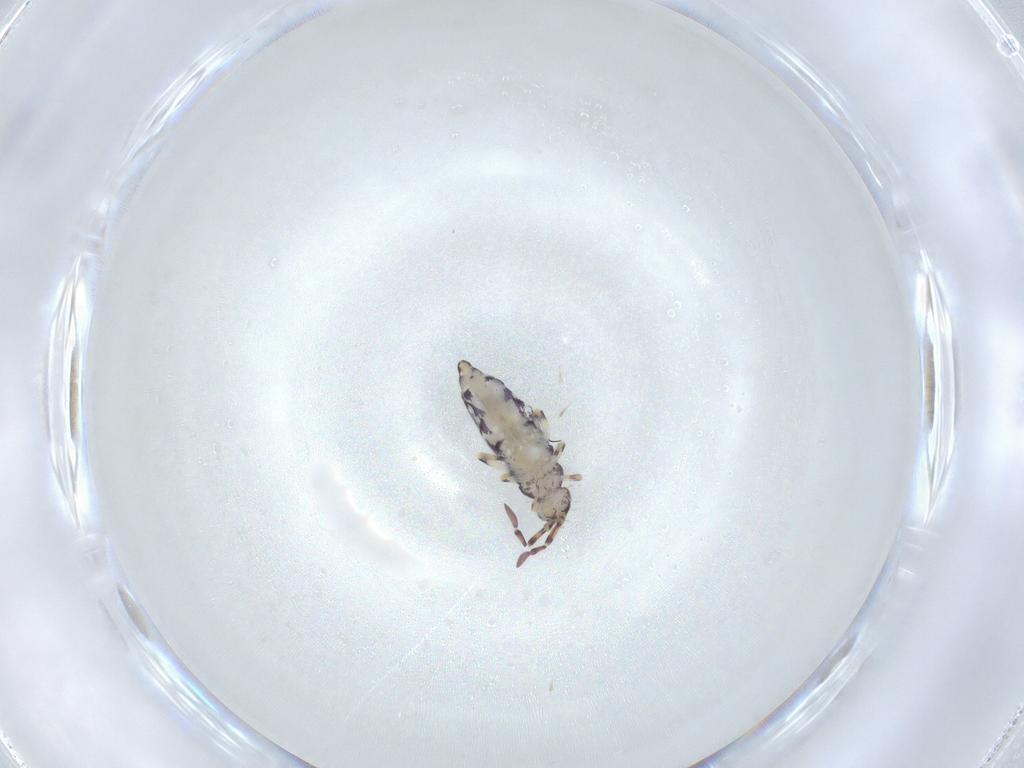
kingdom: Animalia
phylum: Arthropoda
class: Collembola
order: Entomobryomorpha
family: Entomobryidae
